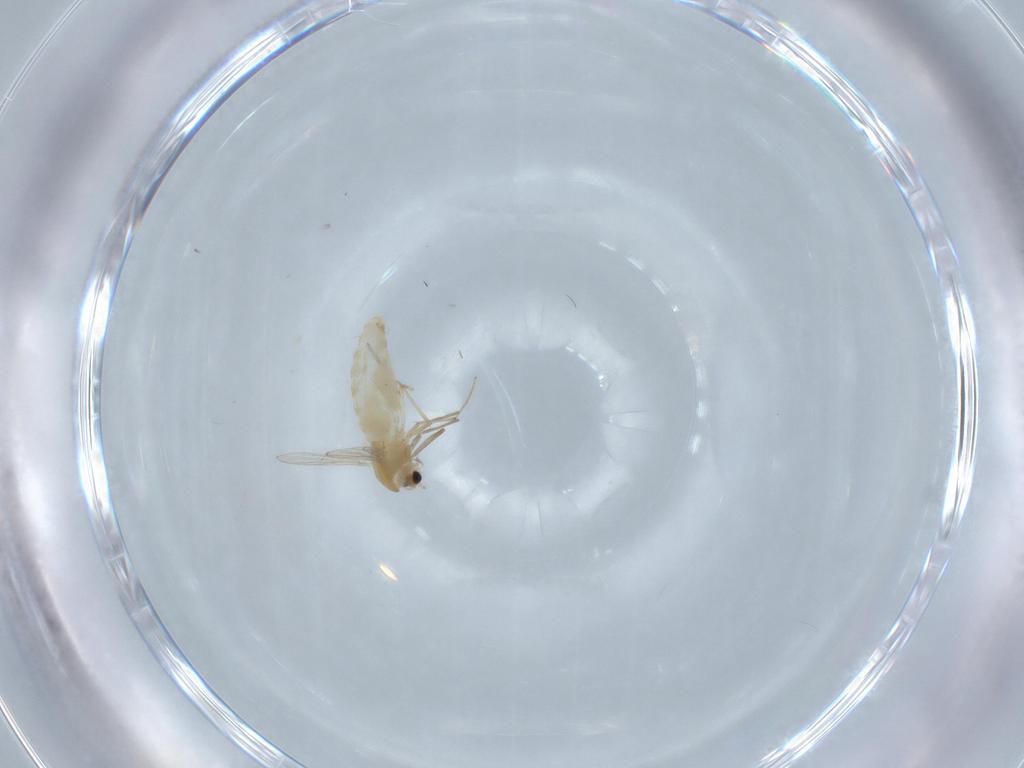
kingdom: Animalia
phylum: Arthropoda
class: Insecta
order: Diptera
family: Chironomidae
